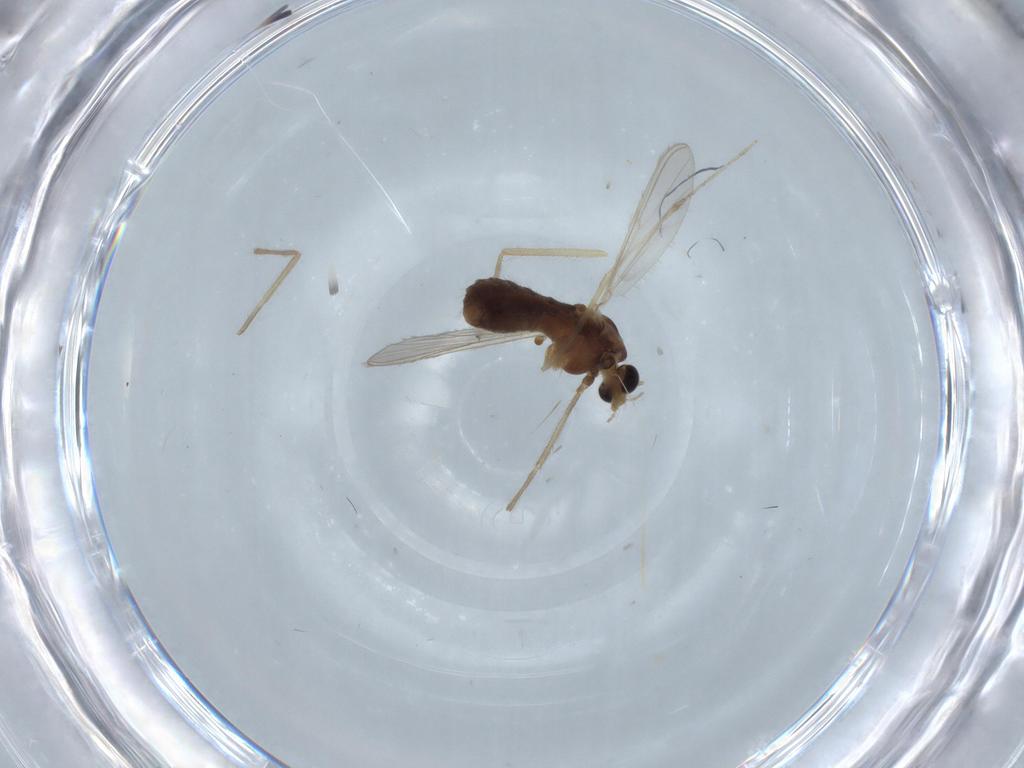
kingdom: Animalia
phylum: Arthropoda
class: Insecta
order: Diptera
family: Chironomidae
